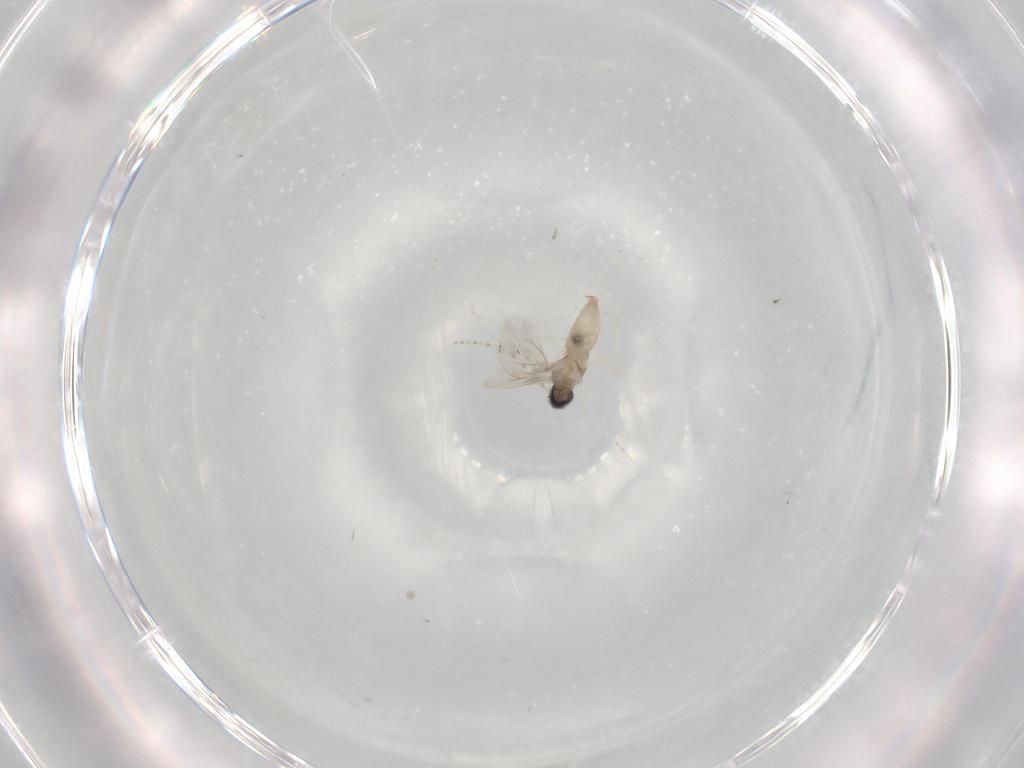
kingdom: Animalia
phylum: Arthropoda
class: Insecta
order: Diptera
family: Cecidomyiidae
